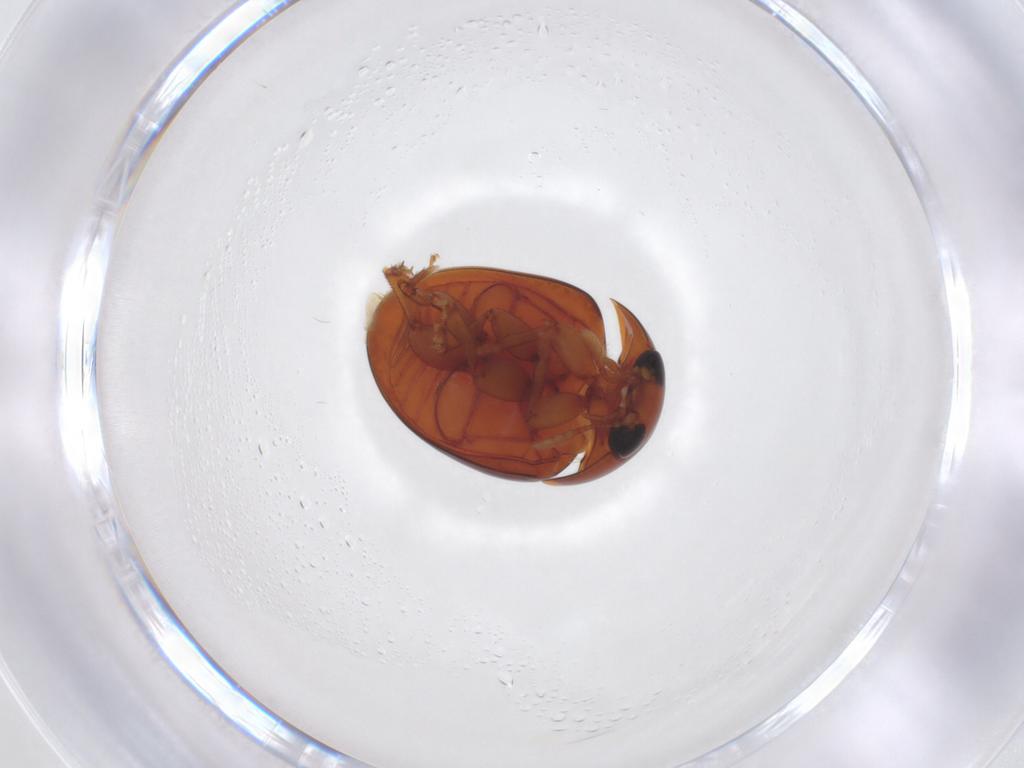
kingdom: Animalia
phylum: Arthropoda
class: Insecta
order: Coleoptera
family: Phalacridae
